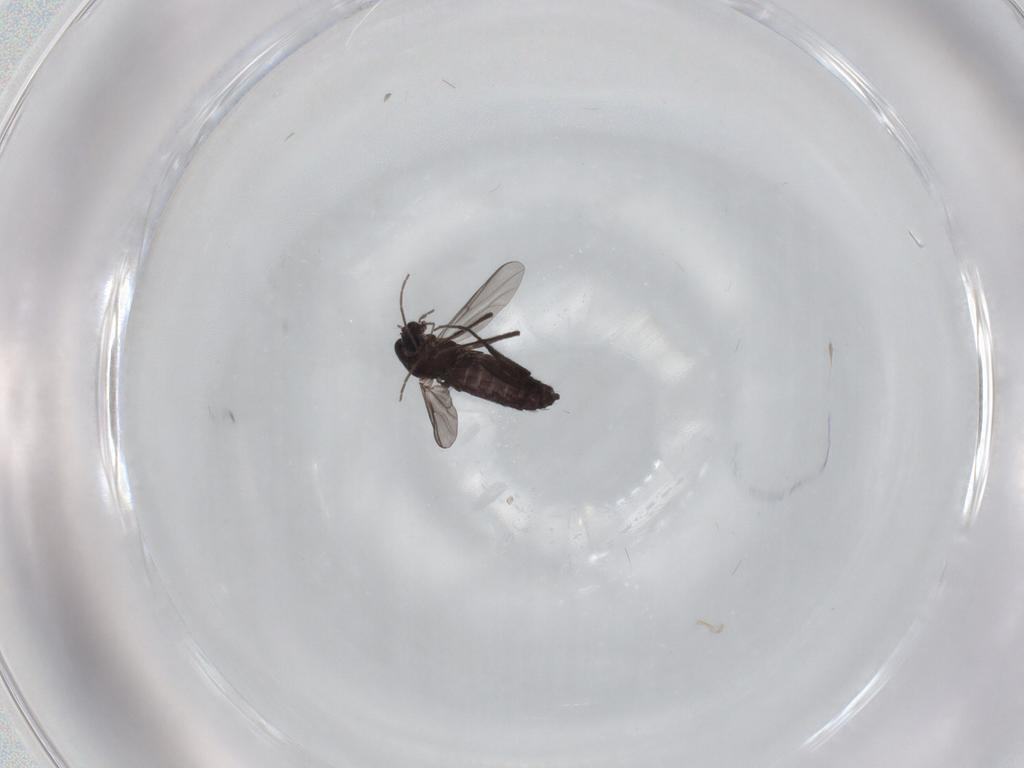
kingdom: Animalia
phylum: Arthropoda
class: Insecta
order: Diptera
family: Chironomidae
